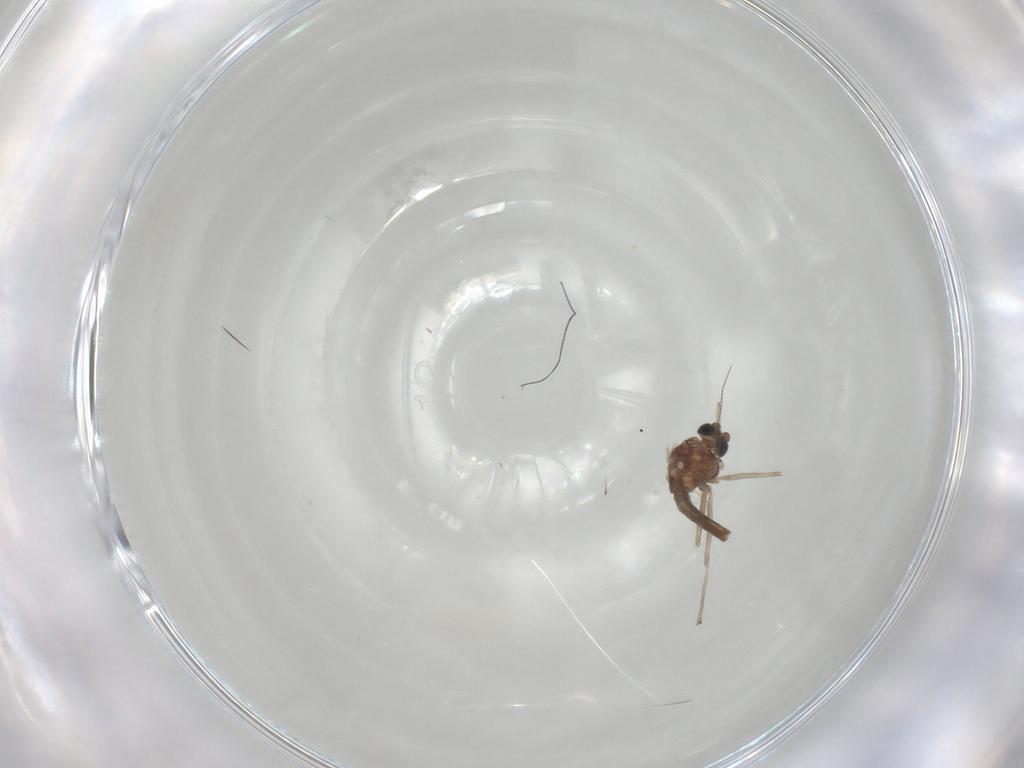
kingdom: Animalia
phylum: Arthropoda
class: Insecta
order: Diptera
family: Chironomidae
